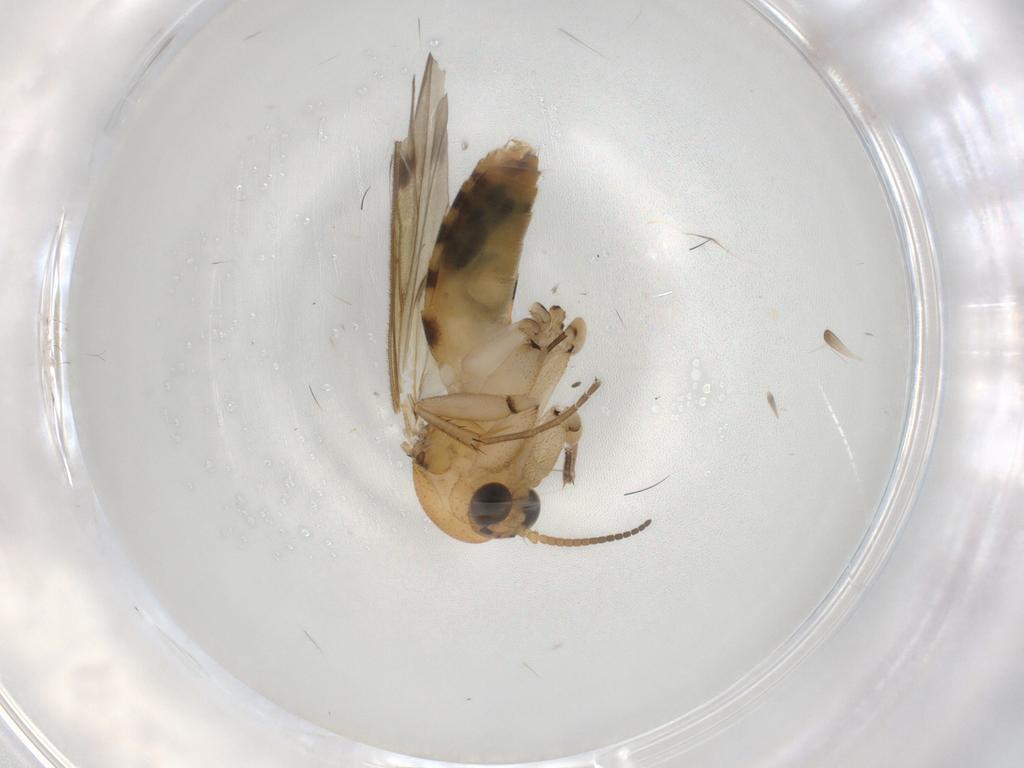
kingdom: Animalia
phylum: Arthropoda
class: Insecta
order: Diptera
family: Mycetophilidae
